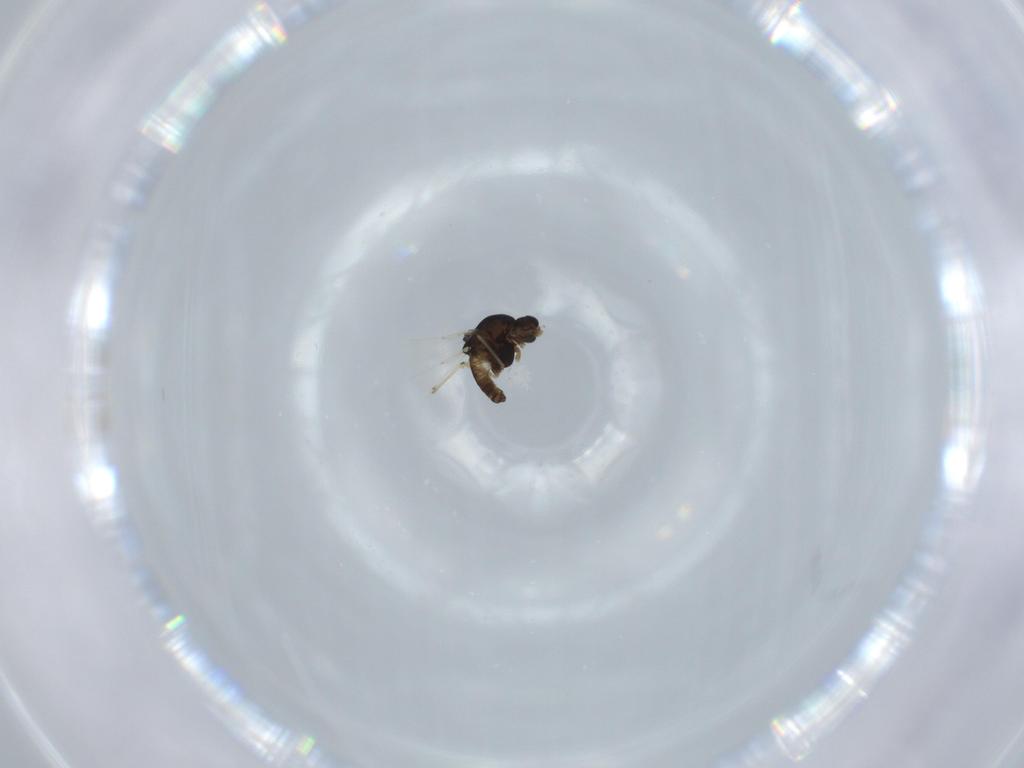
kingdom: Animalia
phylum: Arthropoda
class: Insecta
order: Diptera
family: Chironomidae
